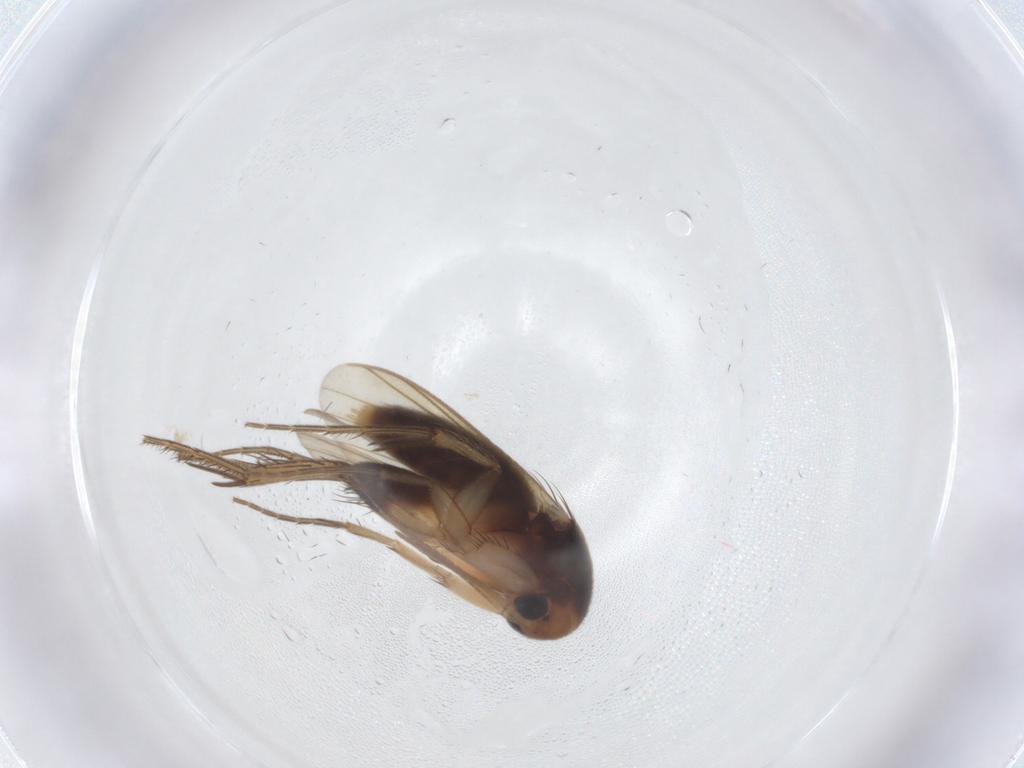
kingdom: Animalia
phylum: Arthropoda
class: Insecta
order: Diptera
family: Mycetophilidae
